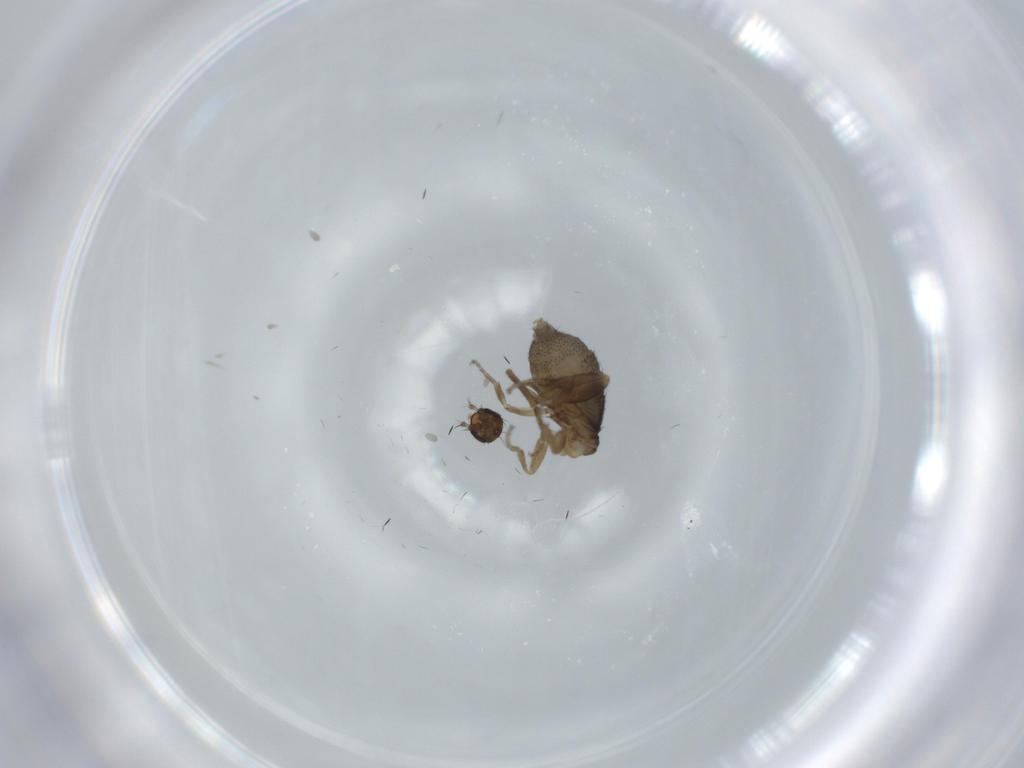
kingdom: Animalia
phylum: Arthropoda
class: Insecta
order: Diptera
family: Phoridae
